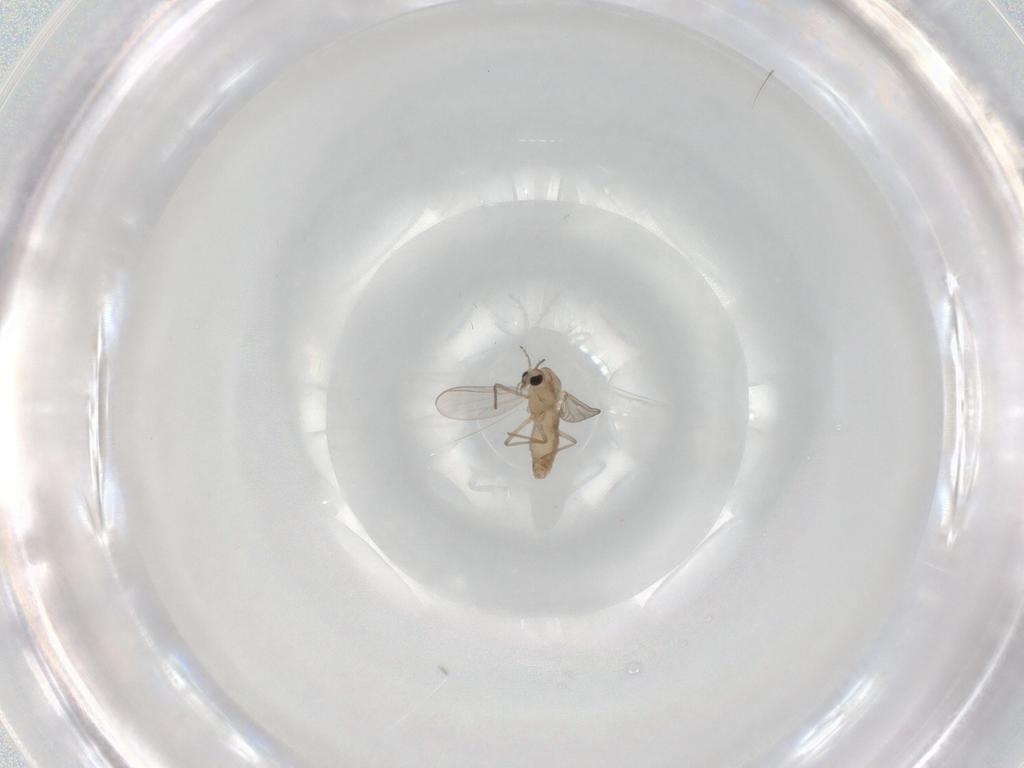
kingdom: Animalia
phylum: Arthropoda
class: Insecta
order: Diptera
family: Chironomidae
